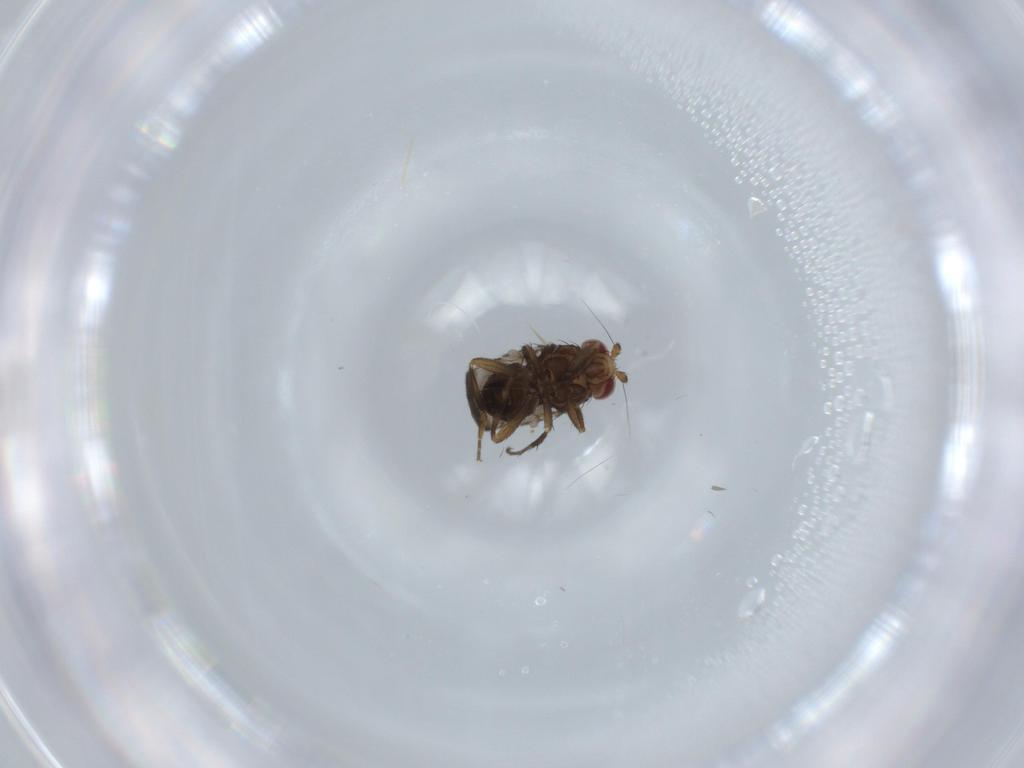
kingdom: Animalia
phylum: Arthropoda
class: Insecta
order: Diptera
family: Sphaeroceridae
